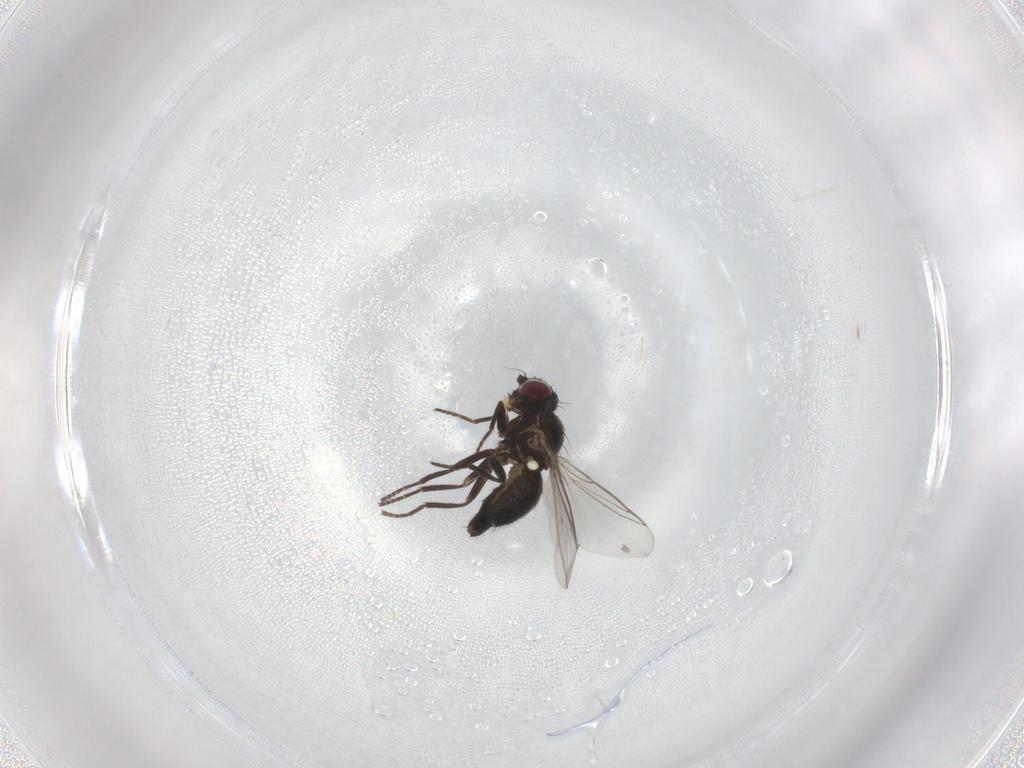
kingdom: Animalia
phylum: Arthropoda
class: Insecta
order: Diptera
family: Agromyzidae
